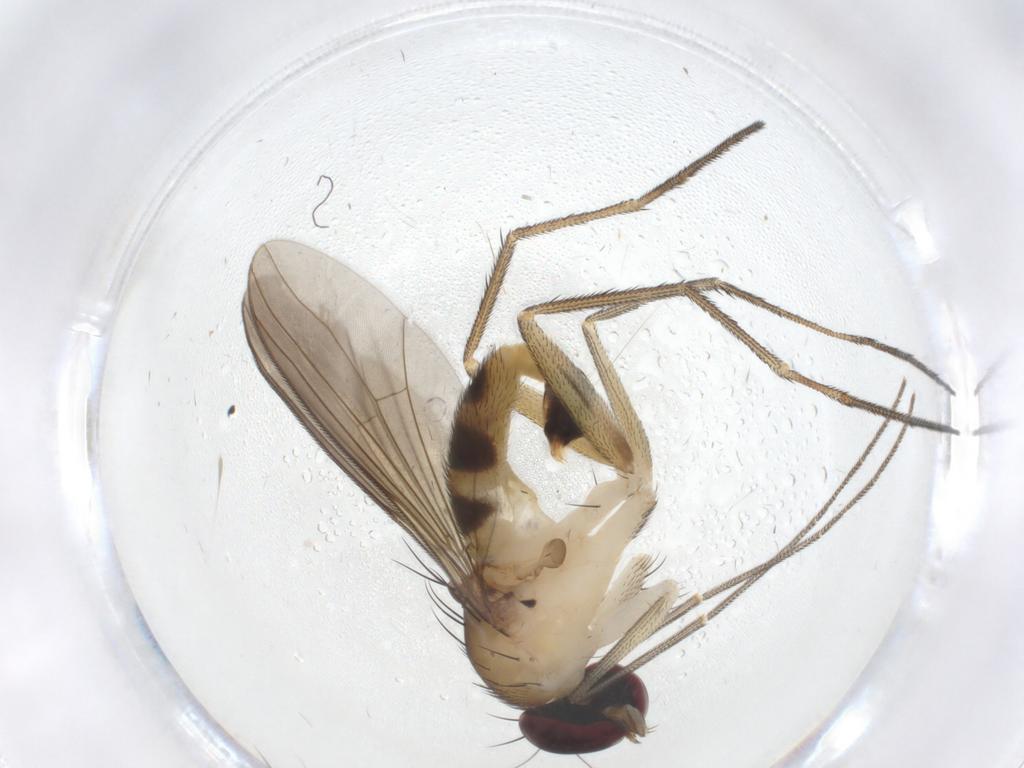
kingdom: Animalia
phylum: Arthropoda
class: Insecta
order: Diptera
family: Dolichopodidae
